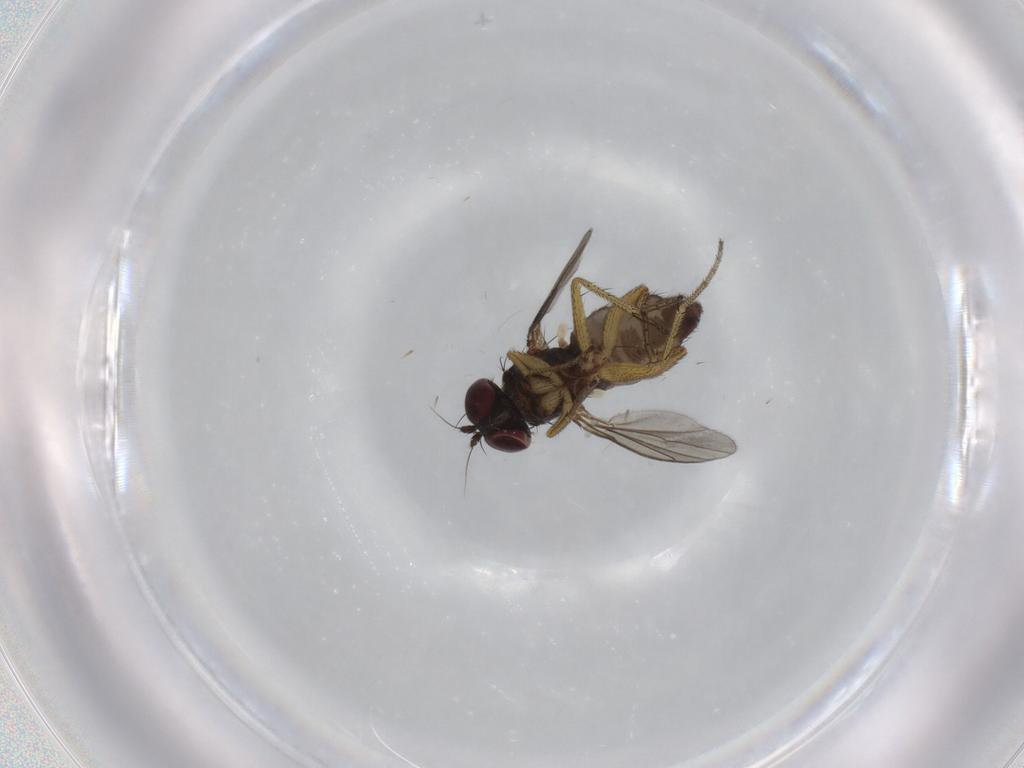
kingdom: Animalia
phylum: Arthropoda
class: Insecta
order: Diptera
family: Dolichopodidae
